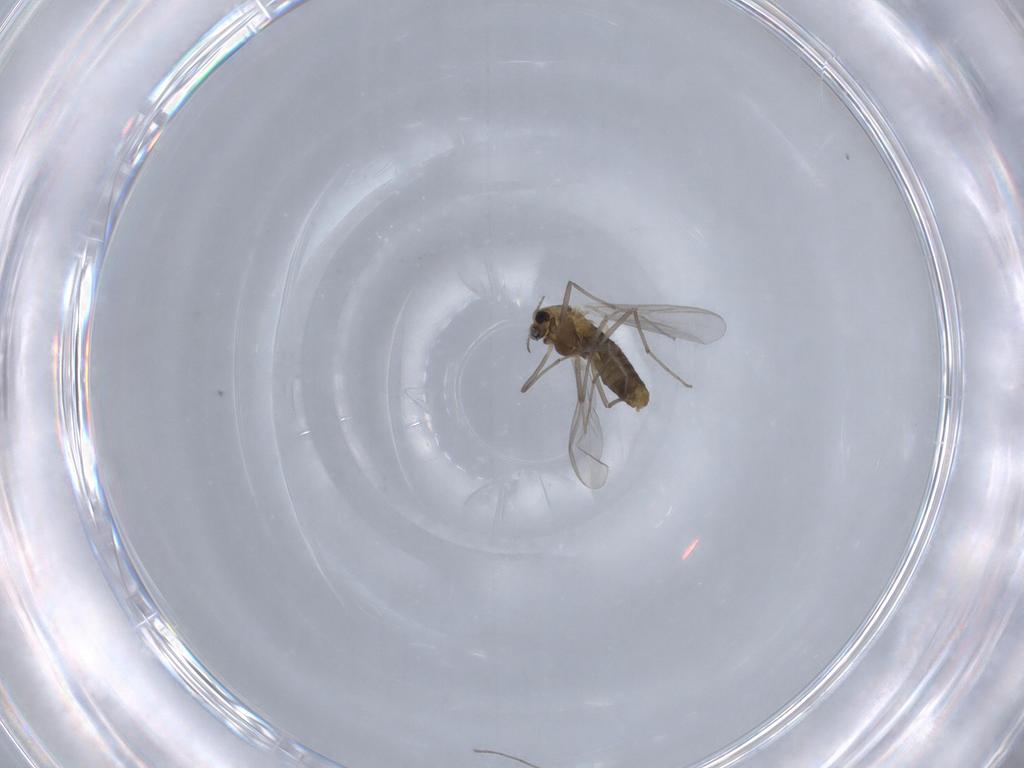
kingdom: Animalia
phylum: Arthropoda
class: Insecta
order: Diptera
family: Chironomidae
